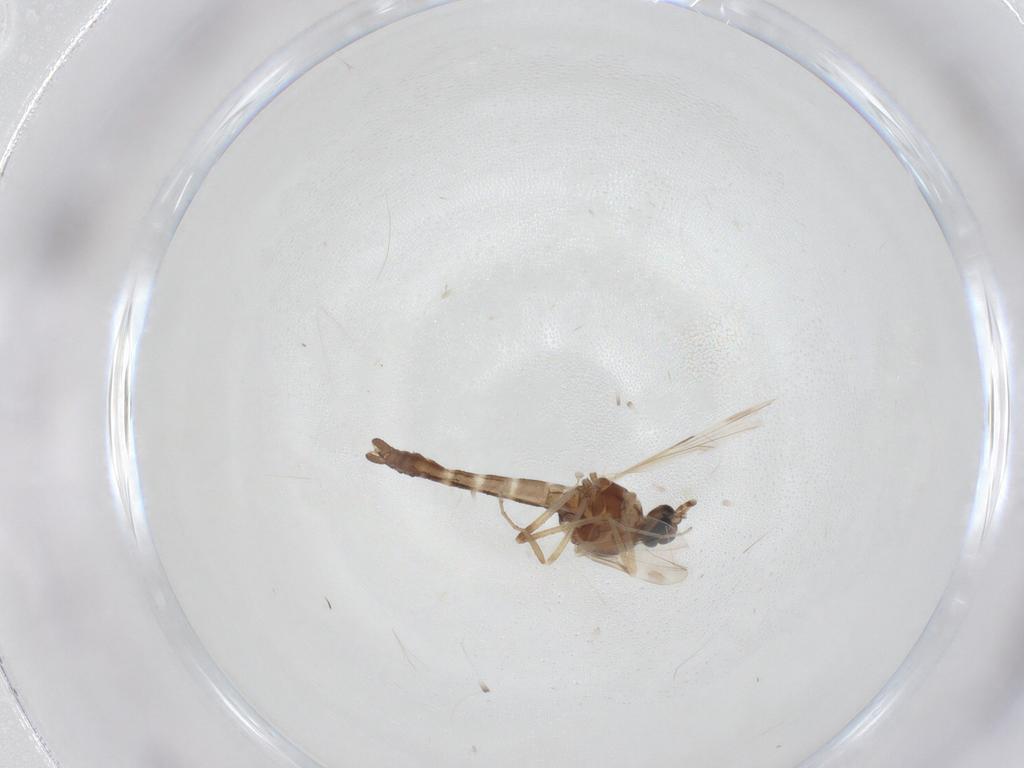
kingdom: Animalia
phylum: Arthropoda
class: Insecta
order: Diptera
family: Ceratopogonidae
